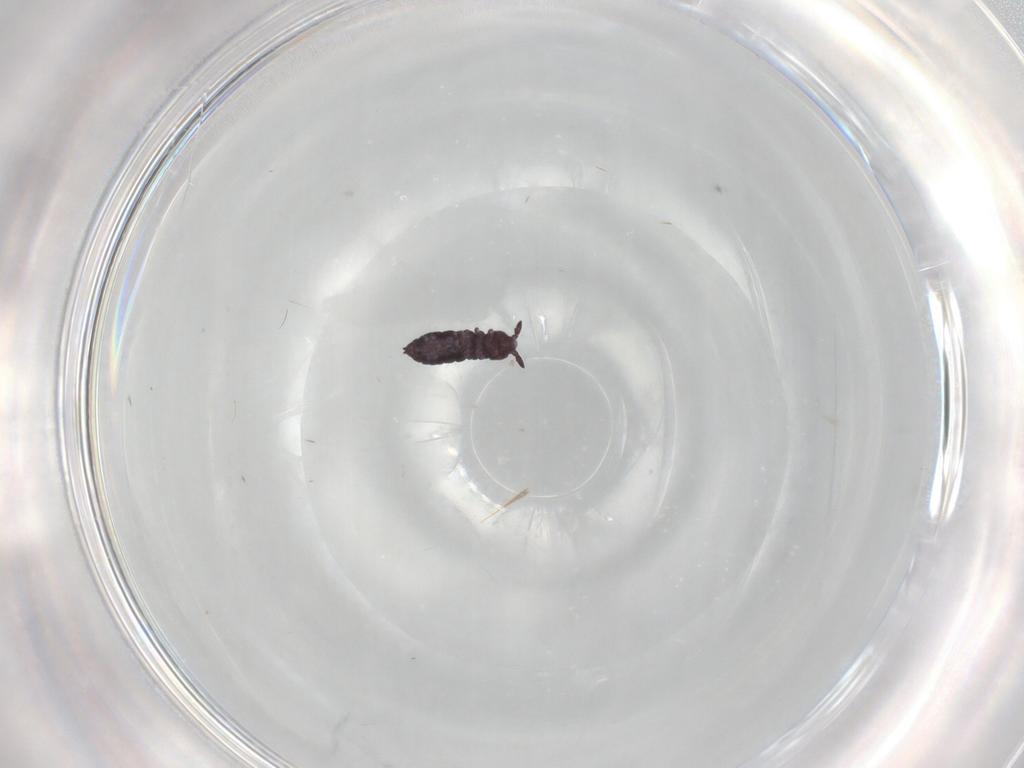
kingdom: Animalia
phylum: Arthropoda
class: Collembola
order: Poduromorpha
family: Hypogastruridae
